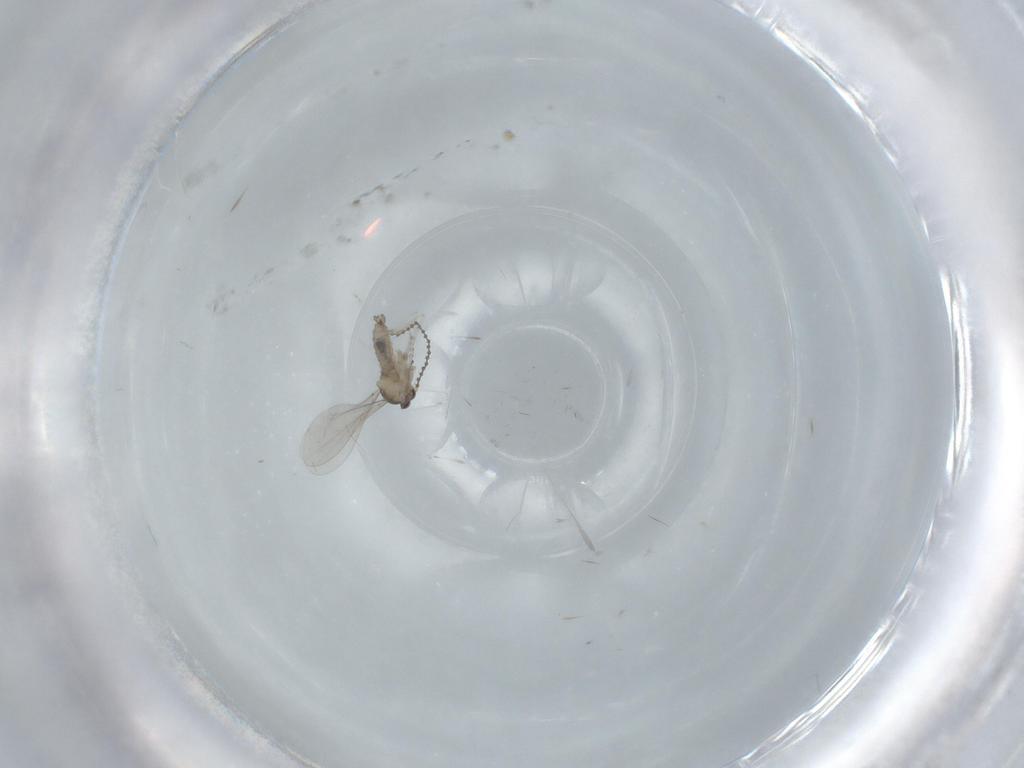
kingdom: Animalia
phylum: Arthropoda
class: Insecta
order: Diptera
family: Cecidomyiidae
